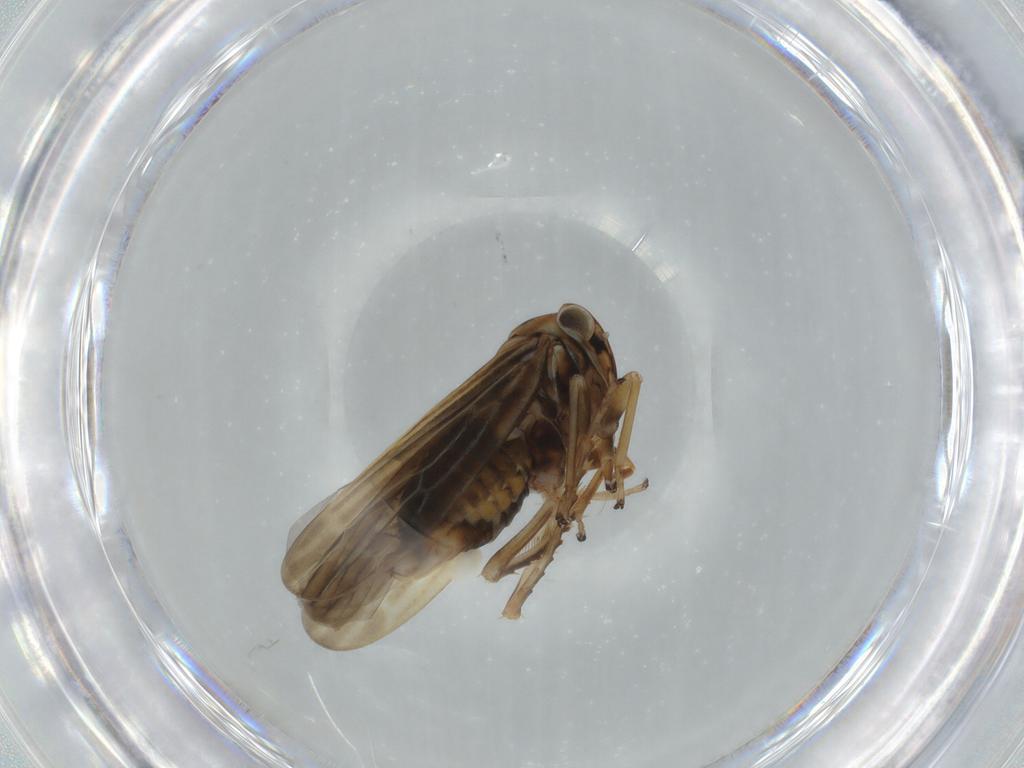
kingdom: Animalia
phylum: Arthropoda
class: Insecta
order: Hemiptera
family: Cicadellidae
